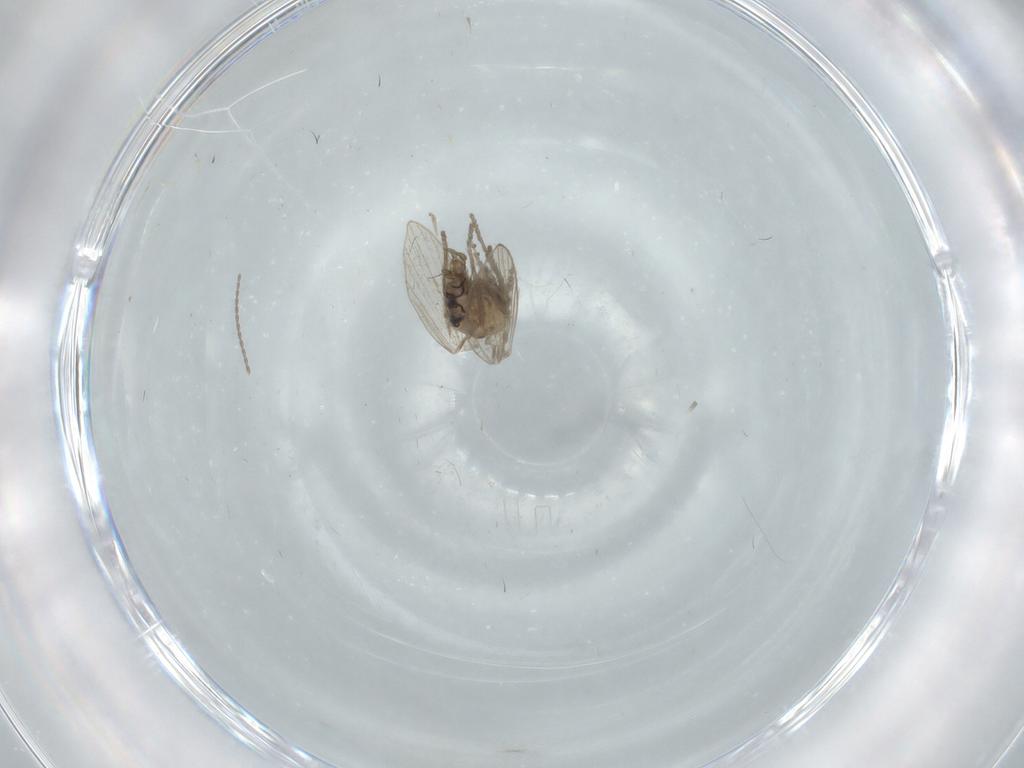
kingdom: Animalia
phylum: Arthropoda
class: Insecta
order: Diptera
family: Psychodidae
